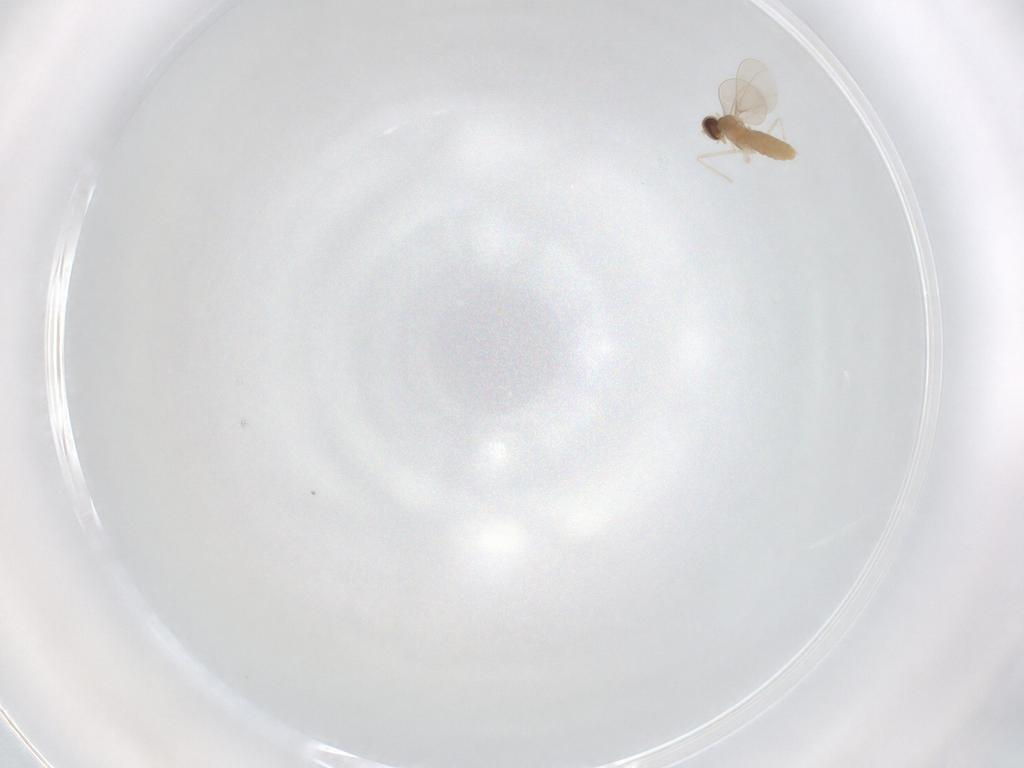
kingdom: Animalia
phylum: Arthropoda
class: Insecta
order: Diptera
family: Cecidomyiidae
